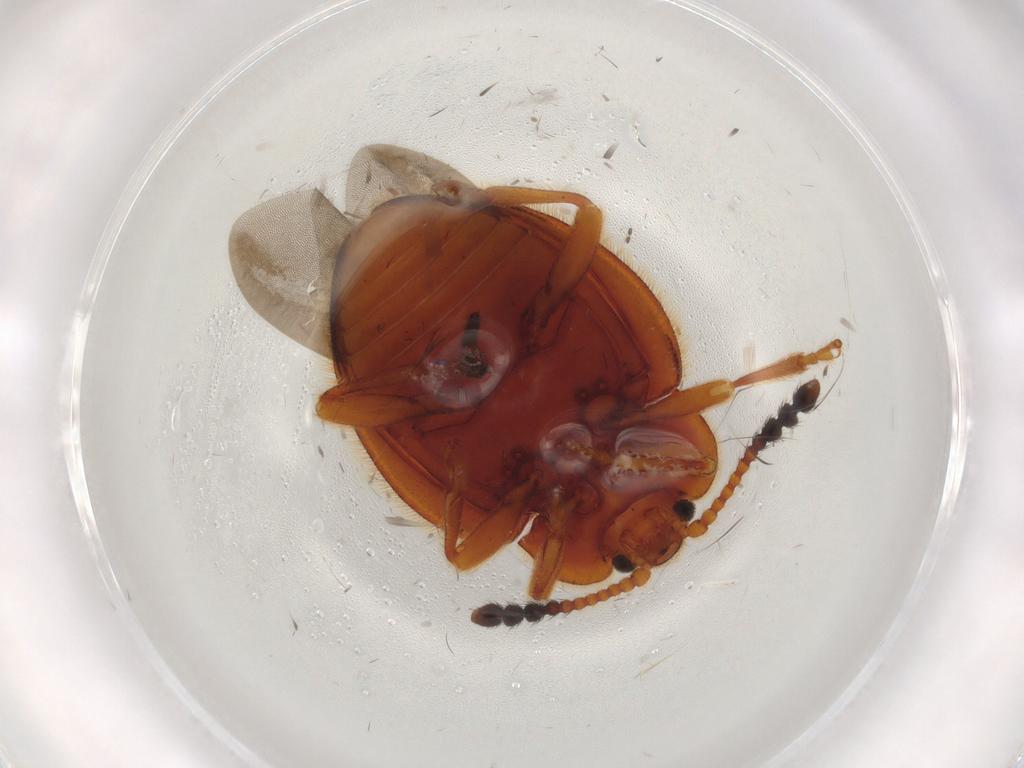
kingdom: Animalia
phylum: Arthropoda
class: Insecta
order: Coleoptera
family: Endomychidae
